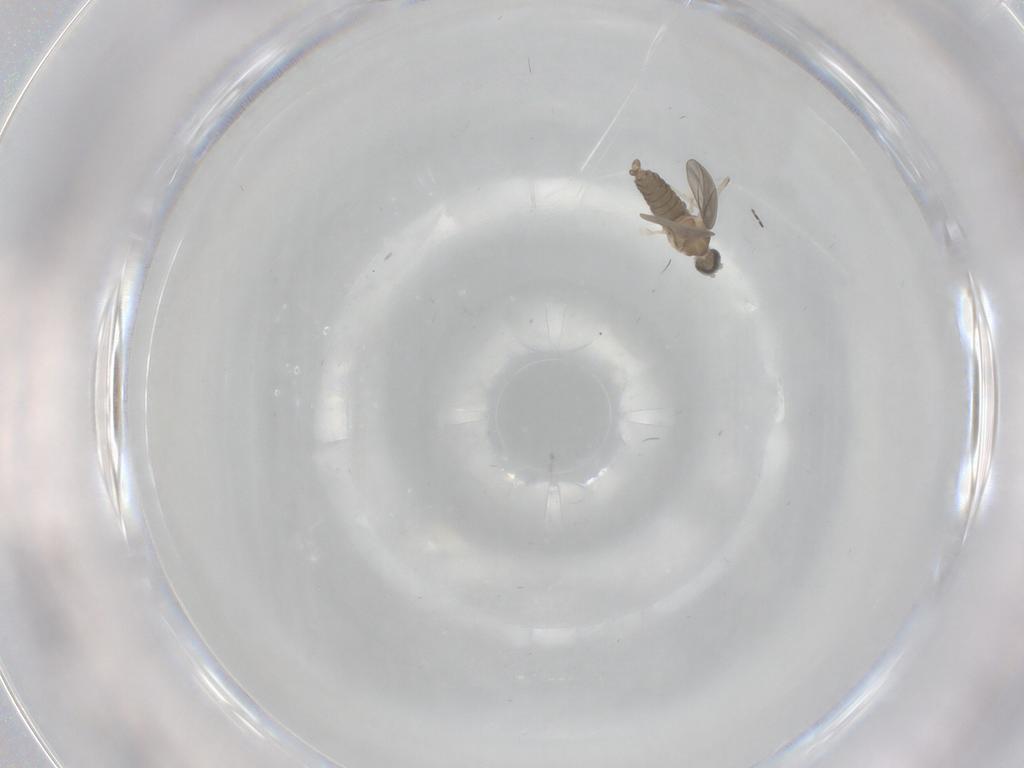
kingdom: Animalia
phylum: Arthropoda
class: Insecta
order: Diptera
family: Cecidomyiidae
